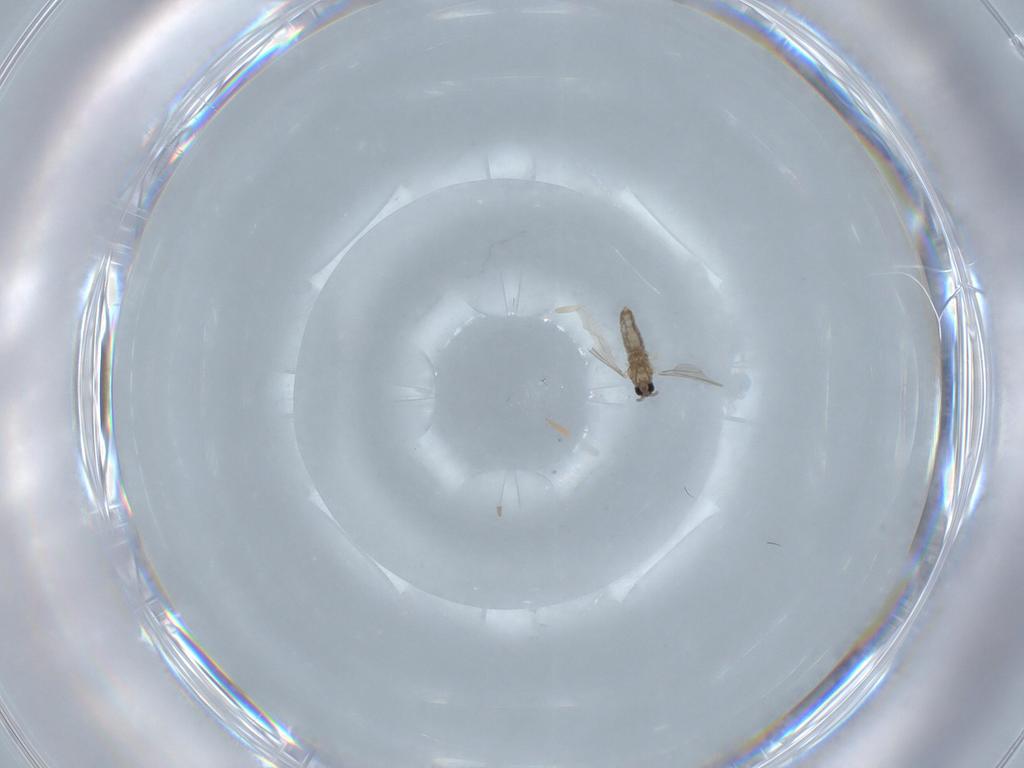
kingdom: Animalia
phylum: Arthropoda
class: Insecta
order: Diptera
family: Cecidomyiidae
